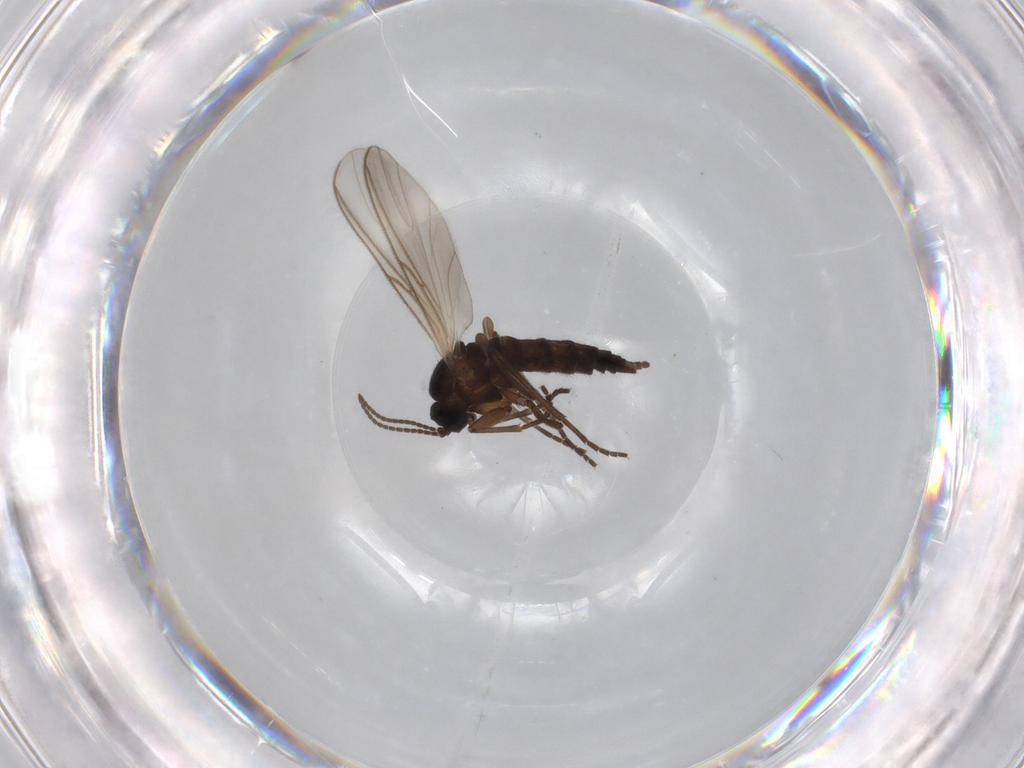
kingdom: Animalia
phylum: Arthropoda
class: Insecta
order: Diptera
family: Sciaridae
